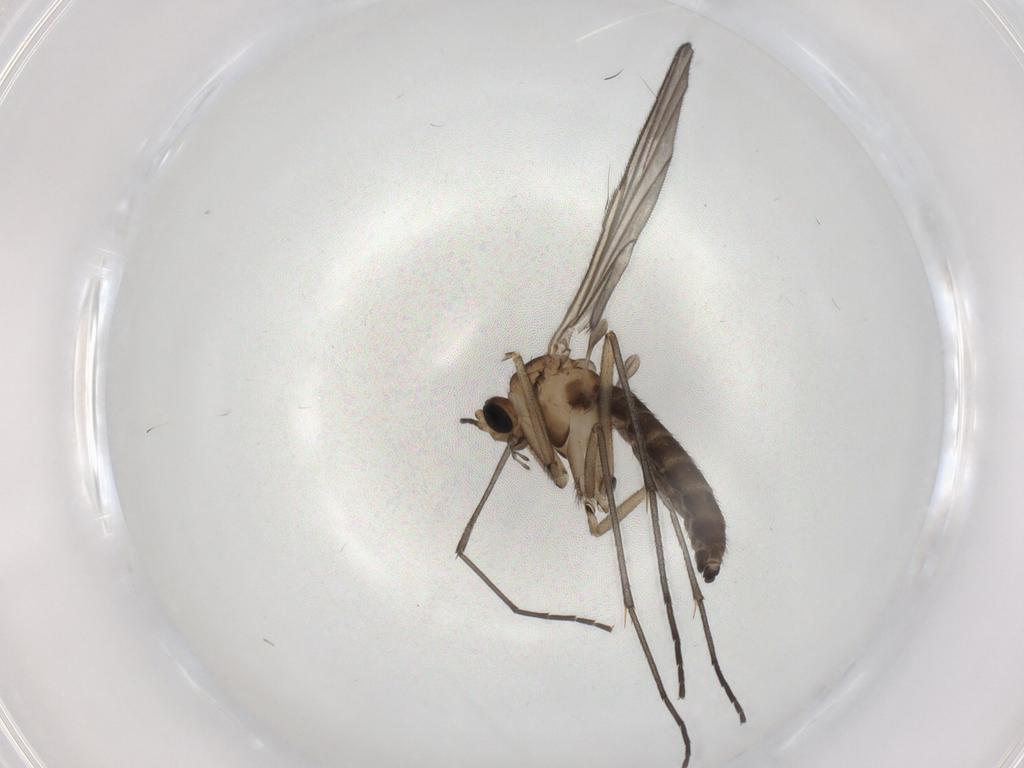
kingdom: Animalia
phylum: Arthropoda
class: Insecta
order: Diptera
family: Sciaridae
